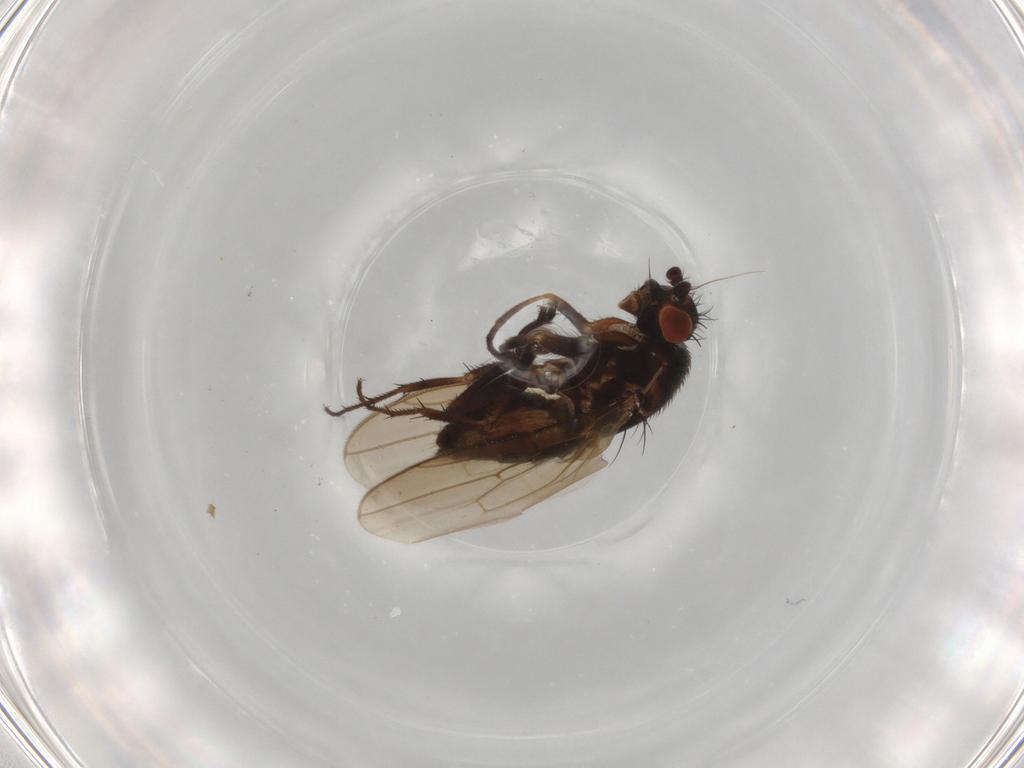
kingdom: Animalia
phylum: Arthropoda
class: Insecta
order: Diptera
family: Sphaeroceridae
